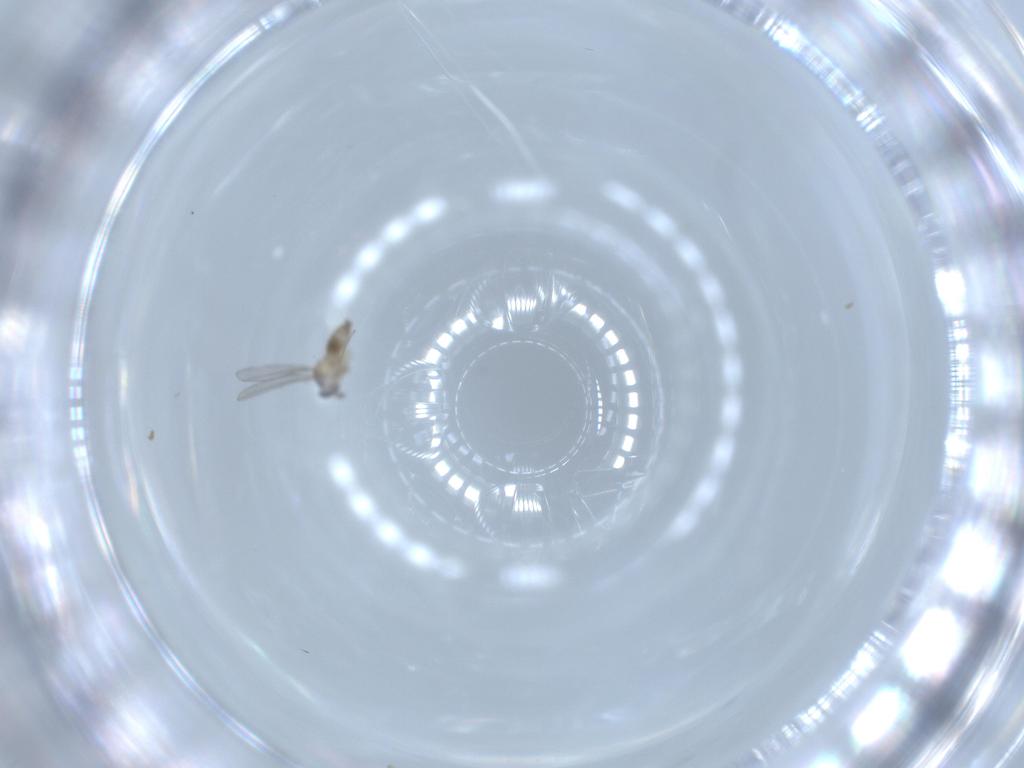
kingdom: Animalia
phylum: Arthropoda
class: Insecta
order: Diptera
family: Cecidomyiidae
